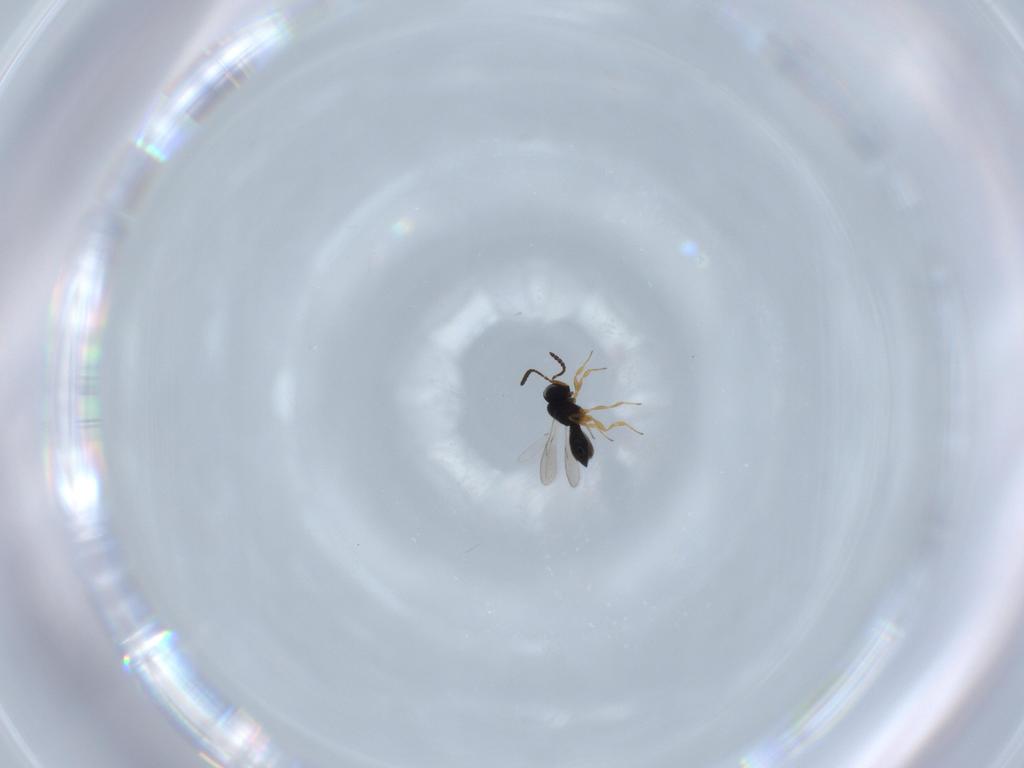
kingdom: Animalia
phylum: Arthropoda
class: Insecta
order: Hymenoptera
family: Scelionidae
